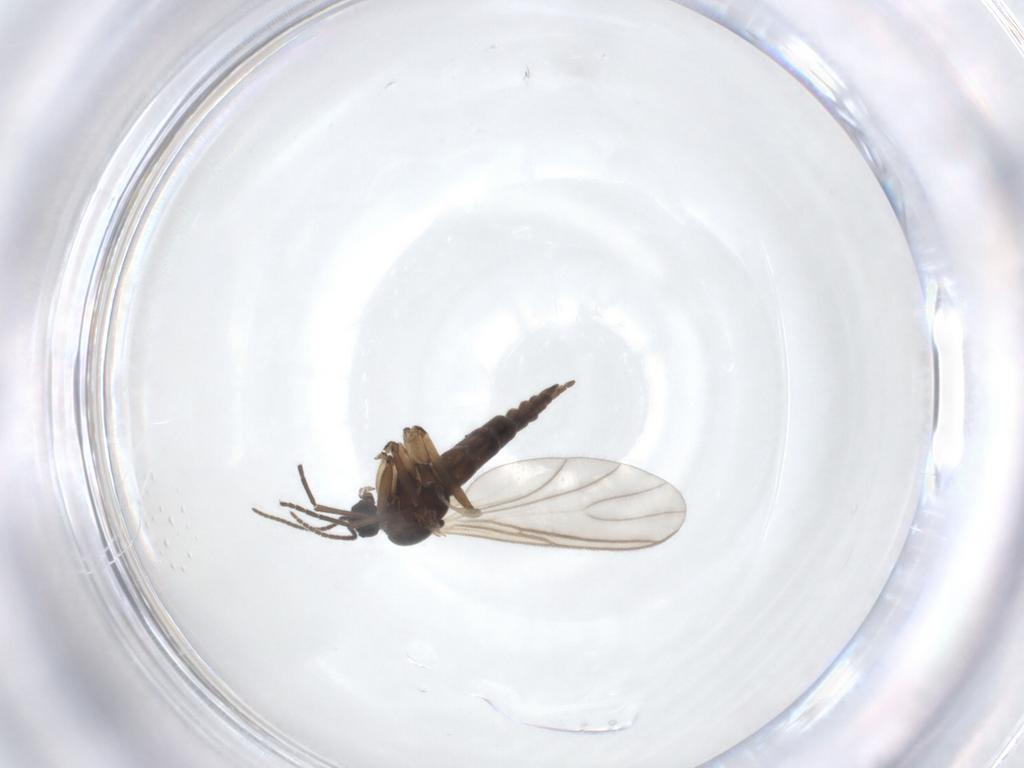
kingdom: Animalia
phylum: Arthropoda
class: Insecta
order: Diptera
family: Sciaridae
